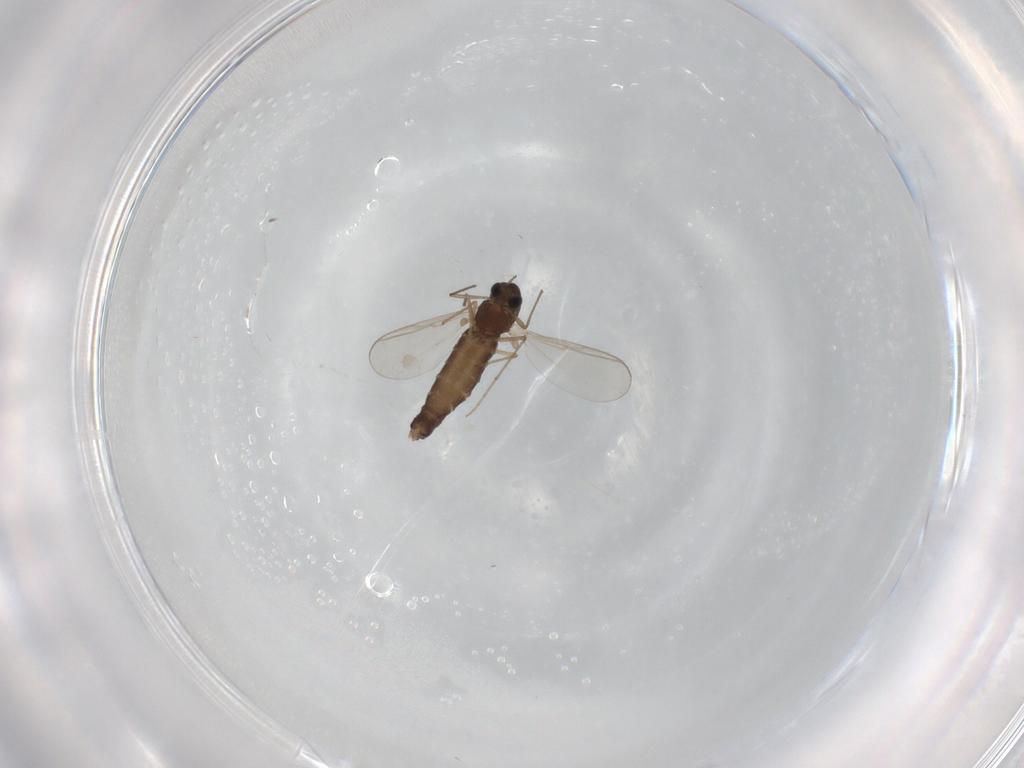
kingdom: Animalia
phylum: Arthropoda
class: Insecta
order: Diptera
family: Chironomidae
